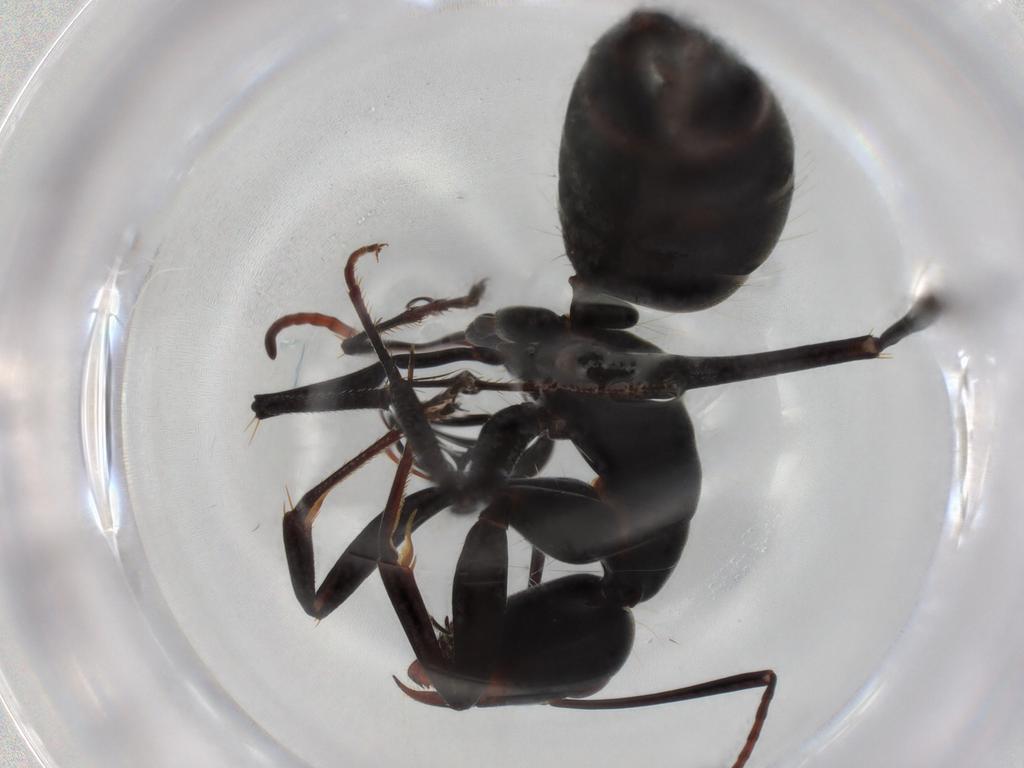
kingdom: Animalia
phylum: Arthropoda
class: Insecta
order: Hymenoptera
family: Formicidae
